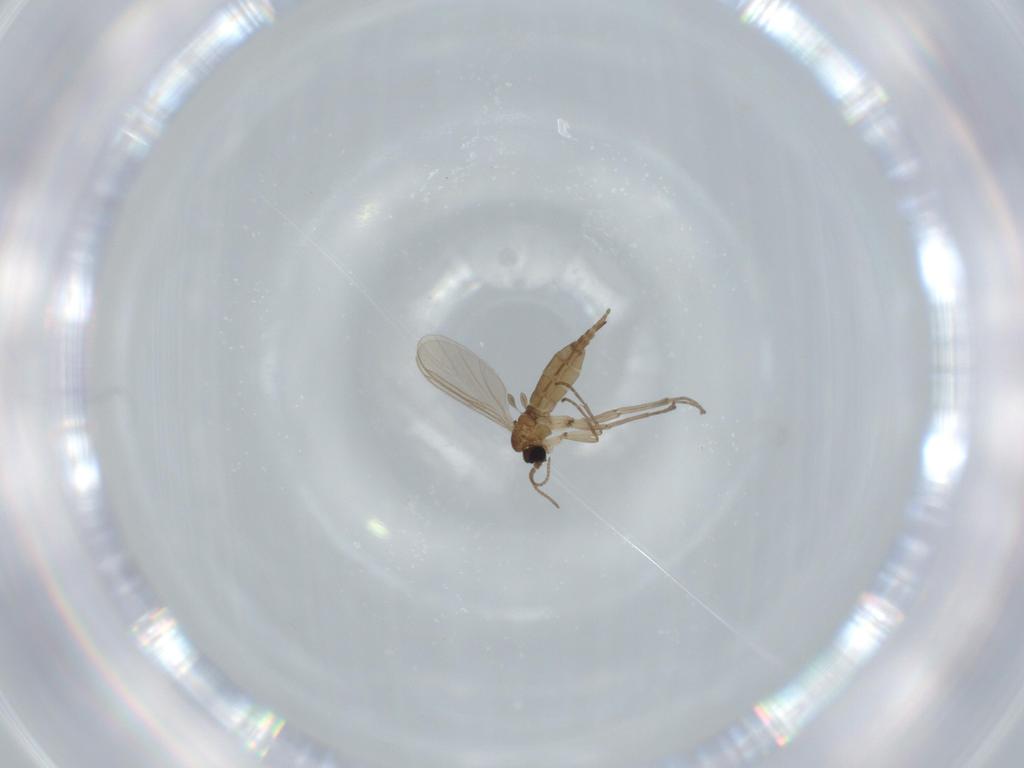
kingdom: Animalia
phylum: Arthropoda
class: Insecta
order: Diptera
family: Sciaridae
